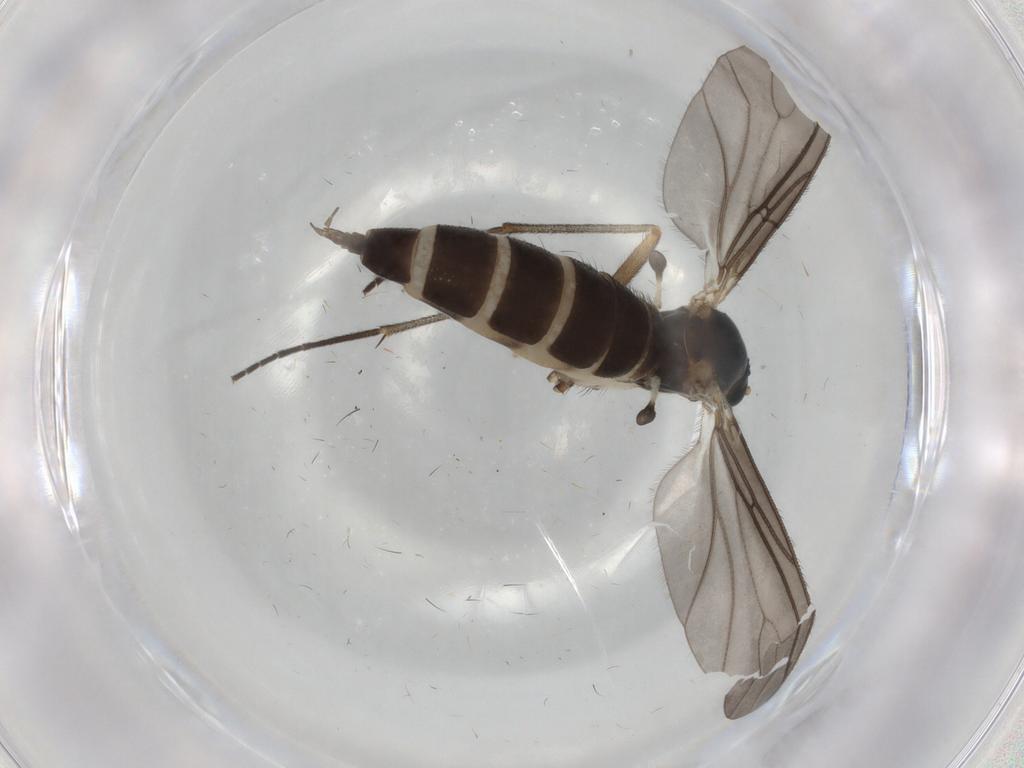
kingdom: Animalia
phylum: Arthropoda
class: Insecta
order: Diptera
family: Sciaridae
